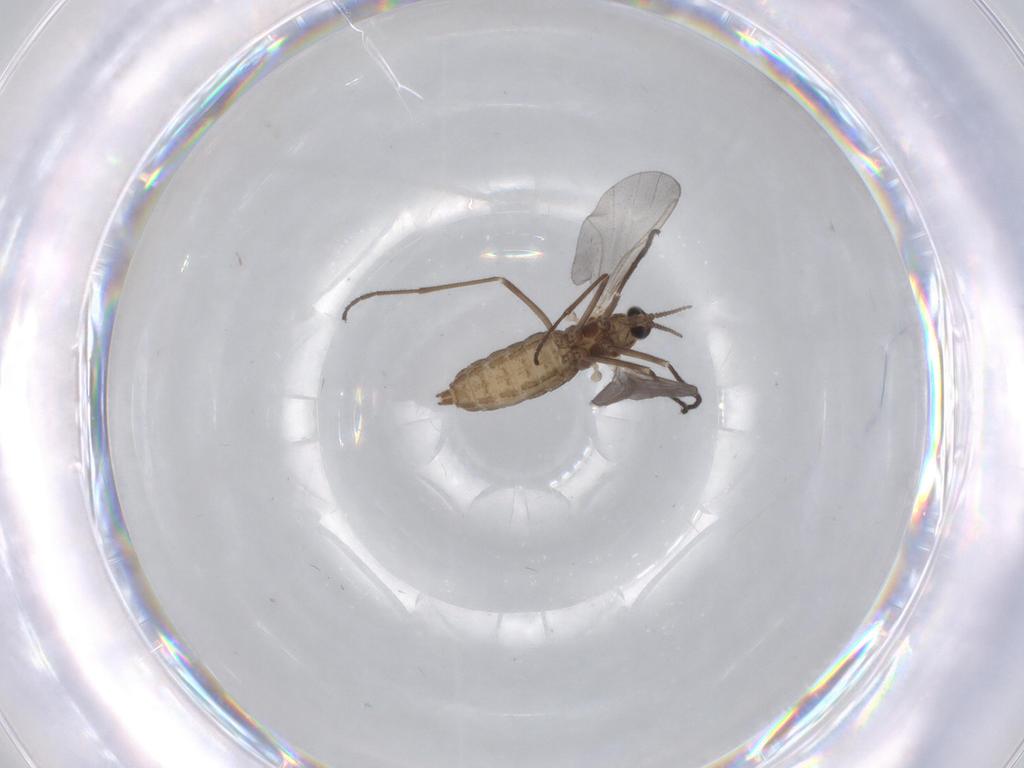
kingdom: Animalia
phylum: Arthropoda
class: Insecta
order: Diptera
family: Cecidomyiidae
